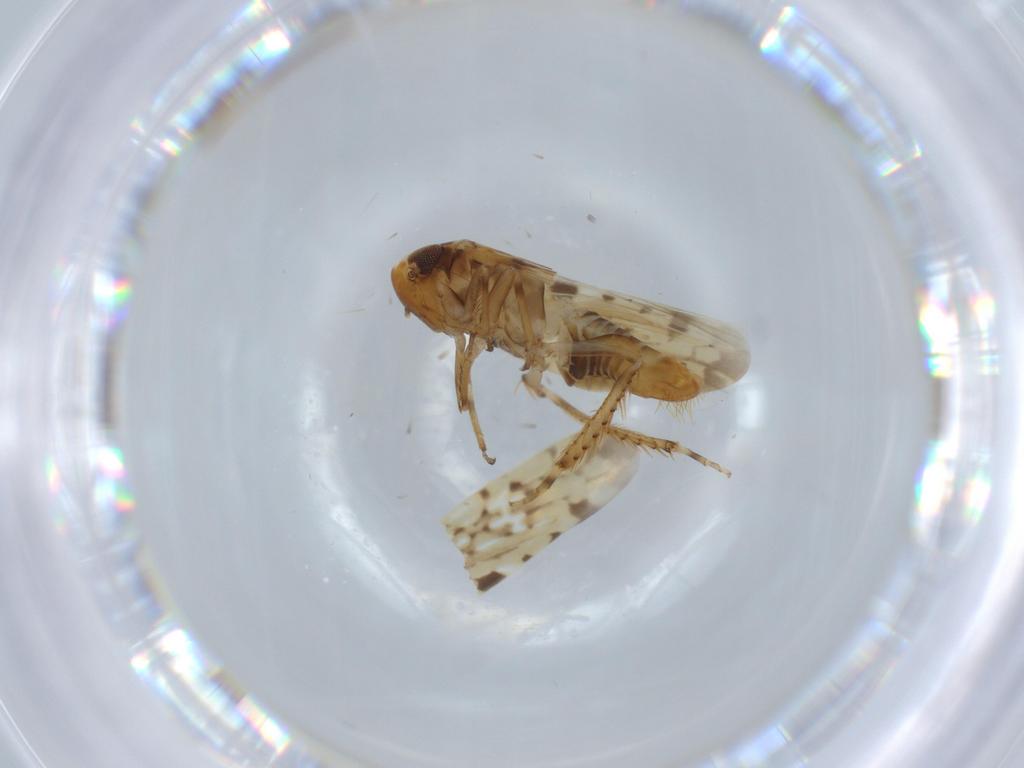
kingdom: Animalia
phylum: Arthropoda
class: Insecta
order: Hemiptera
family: Cicadellidae
